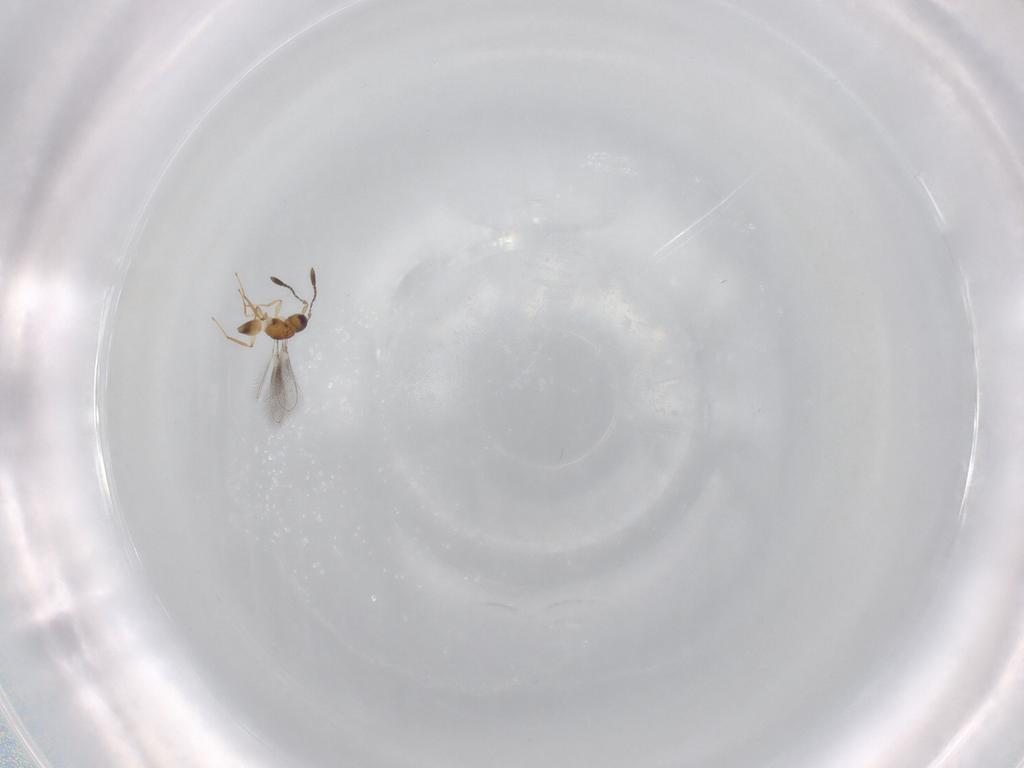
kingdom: Animalia
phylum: Arthropoda
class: Insecta
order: Hymenoptera
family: Mymaridae
